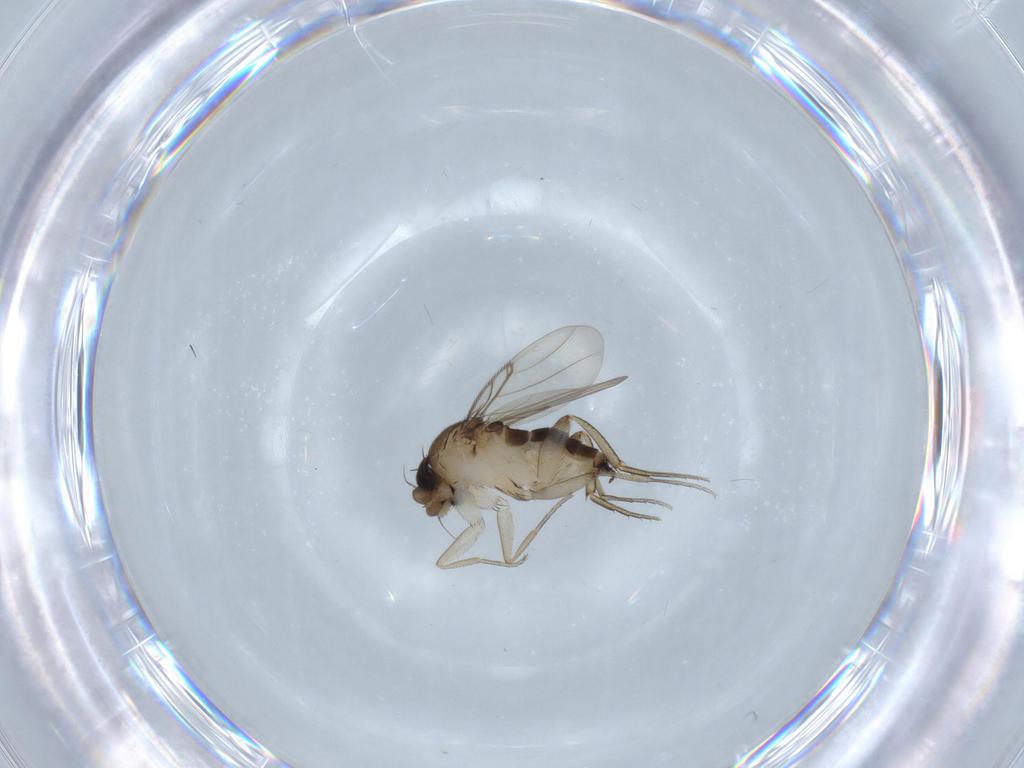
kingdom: Animalia
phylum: Arthropoda
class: Insecta
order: Diptera
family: Phoridae
